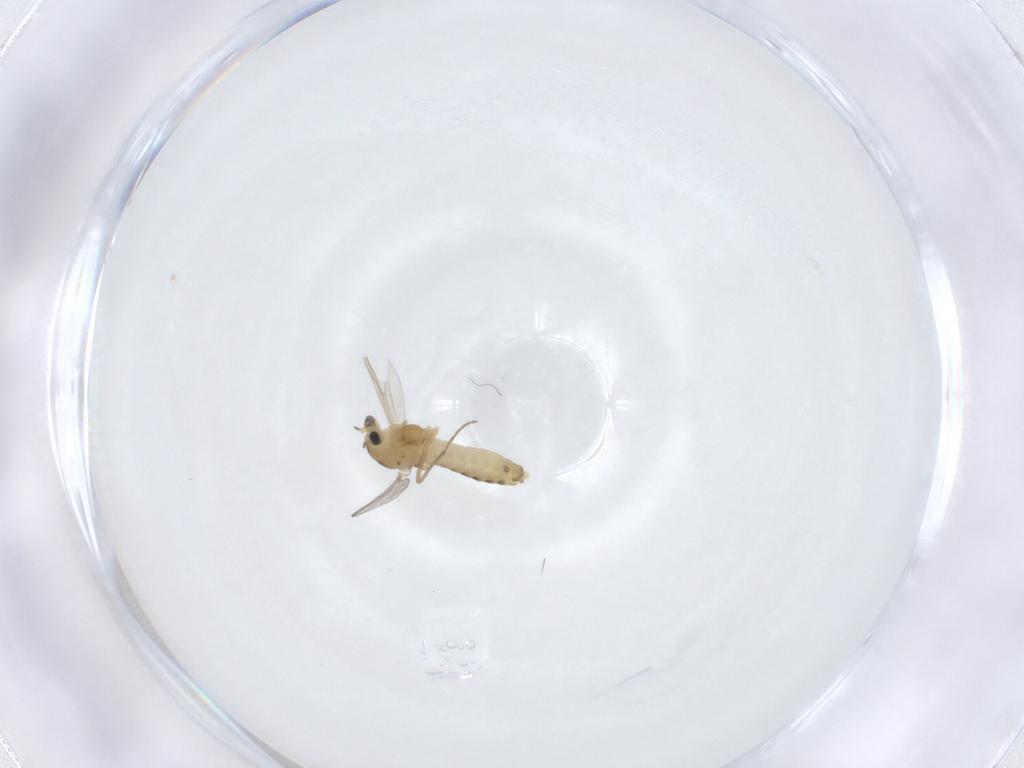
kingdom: Animalia
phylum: Arthropoda
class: Insecta
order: Diptera
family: Chironomidae
